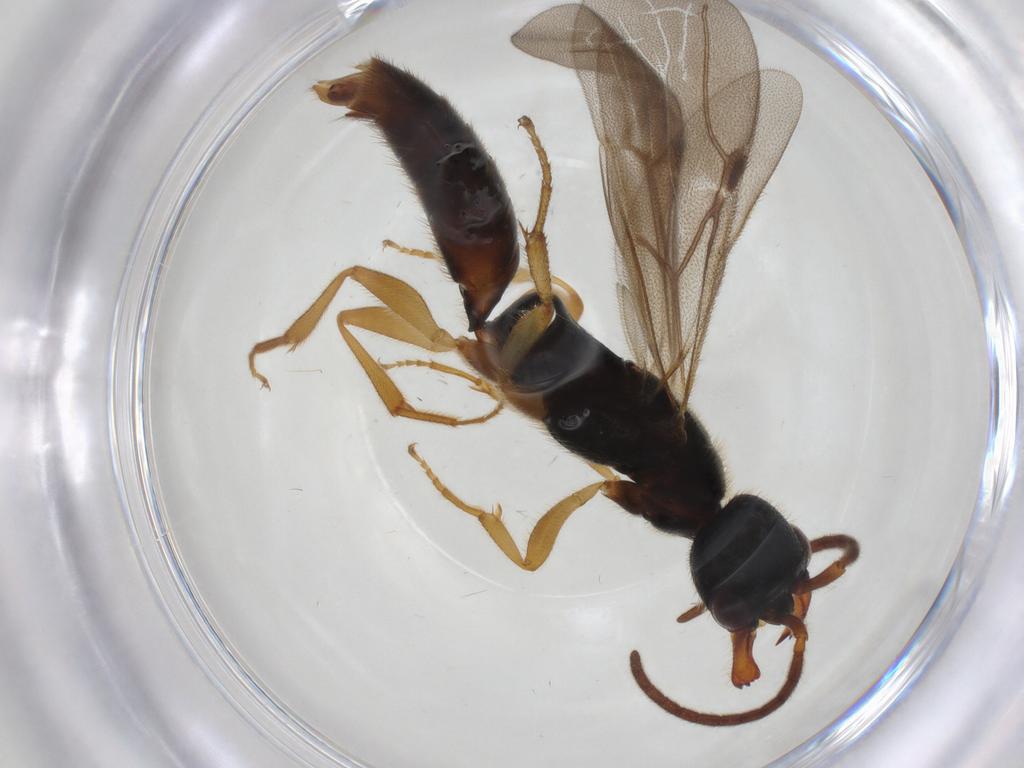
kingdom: Animalia
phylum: Arthropoda
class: Insecta
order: Hymenoptera
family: Bethylidae
